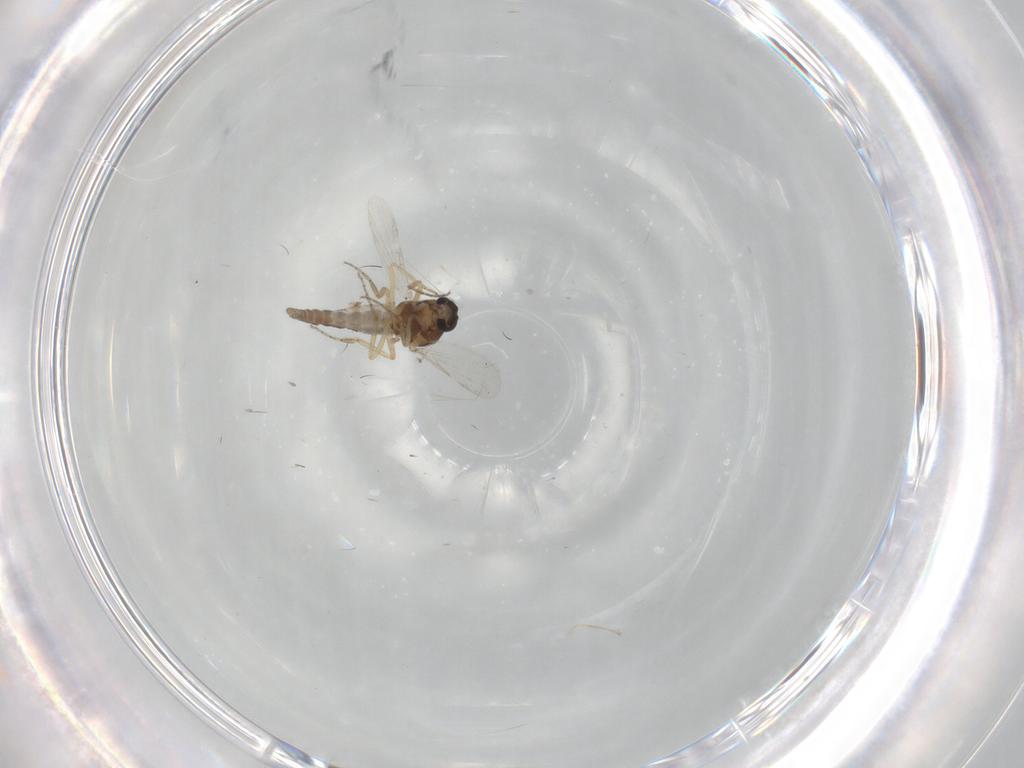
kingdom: Animalia
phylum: Arthropoda
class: Insecta
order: Diptera
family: Ceratopogonidae
